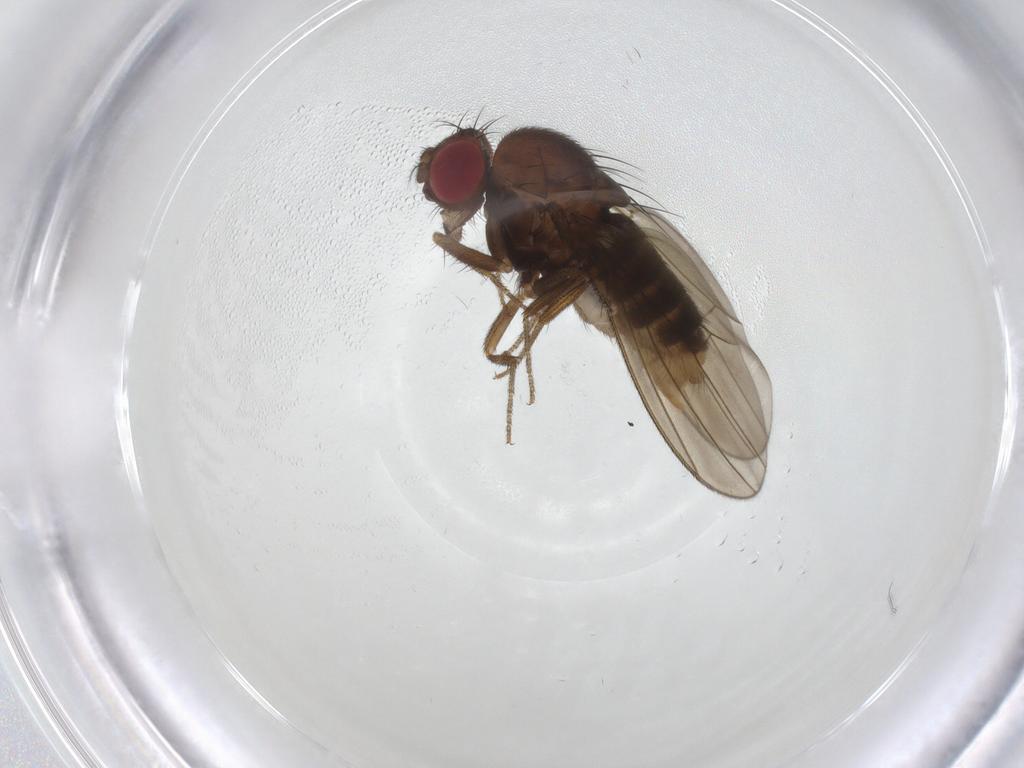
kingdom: Animalia
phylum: Arthropoda
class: Insecta
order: Diptera
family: Drosophilidae
